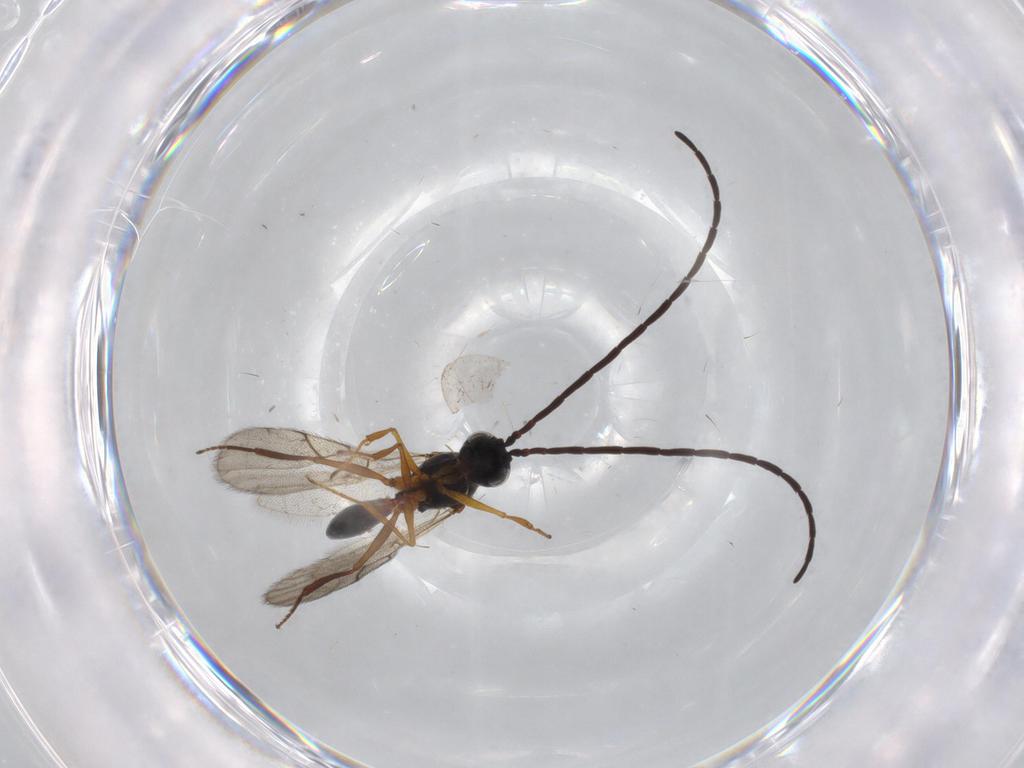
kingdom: Animalia
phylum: Arthropoda
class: Insecta
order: Hymenoptera
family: Figitidae
